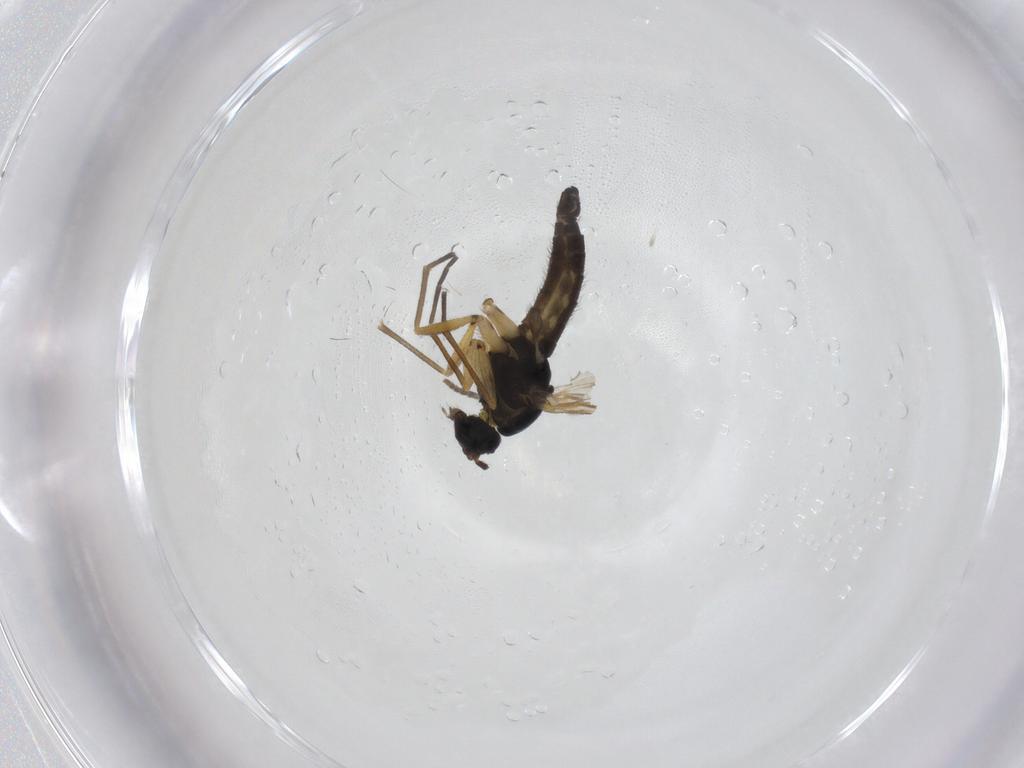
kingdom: Animalia
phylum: Arthropoda
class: Insecta
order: Diptera
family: Sciaridae
